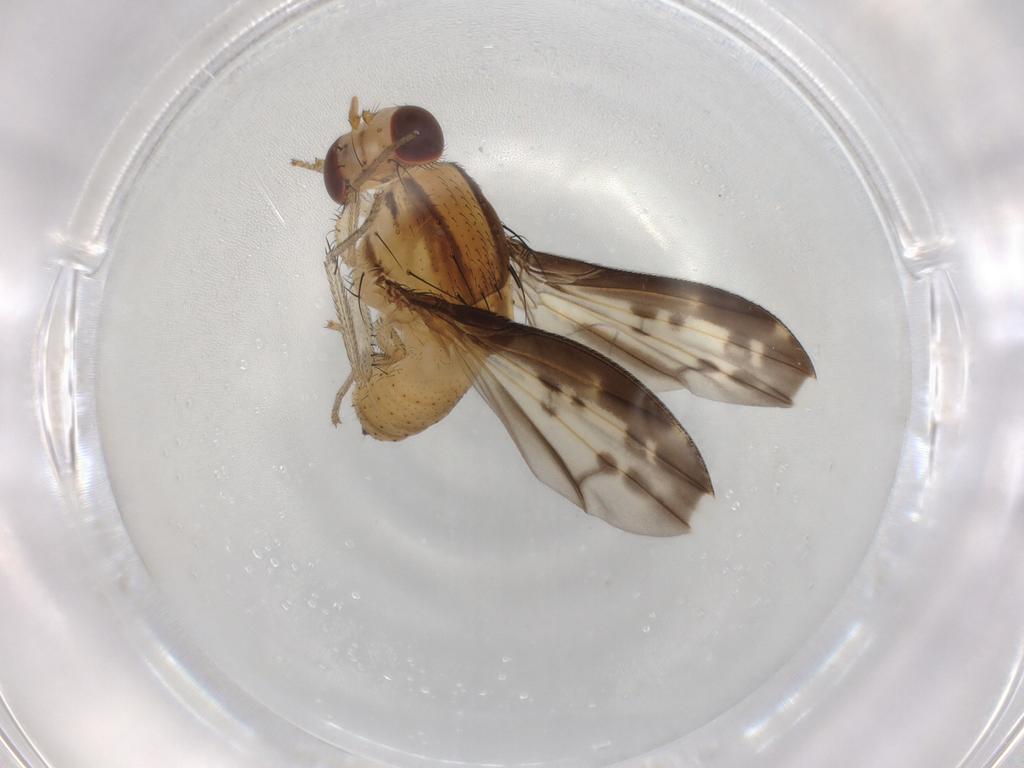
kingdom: Animalia
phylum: Arthropoda
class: Insecta
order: Diptera
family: Lauxaniidae
